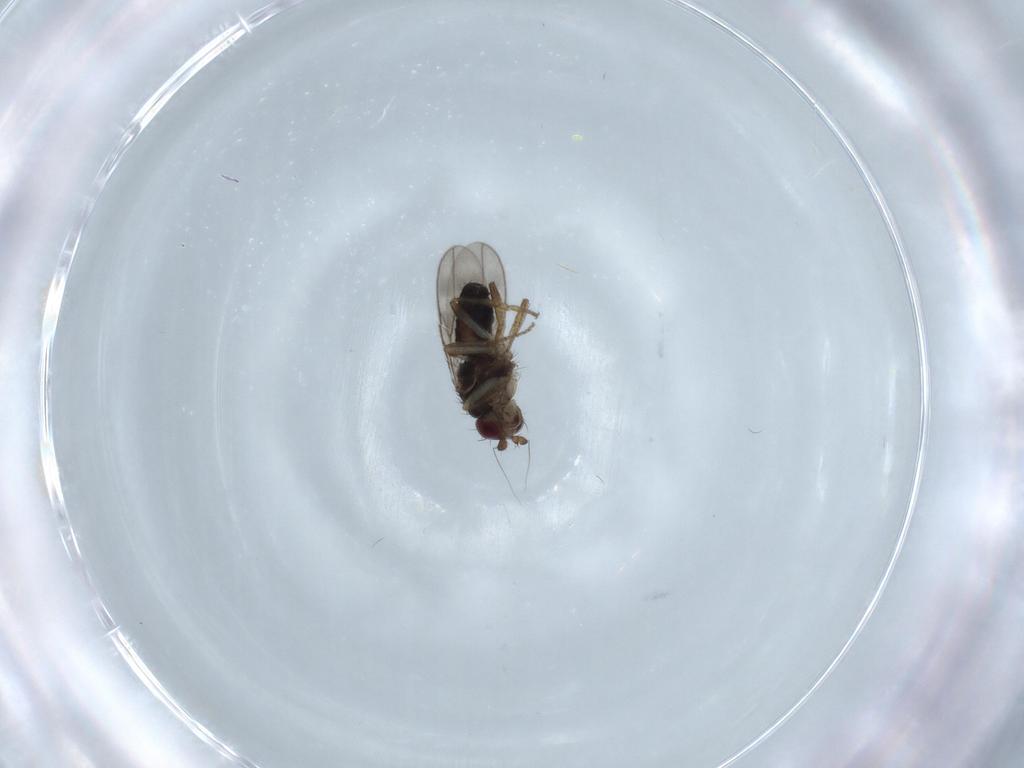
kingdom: Animalia
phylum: Arthropoda
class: Insecta
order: Diptera
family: Sphaeroceridae
